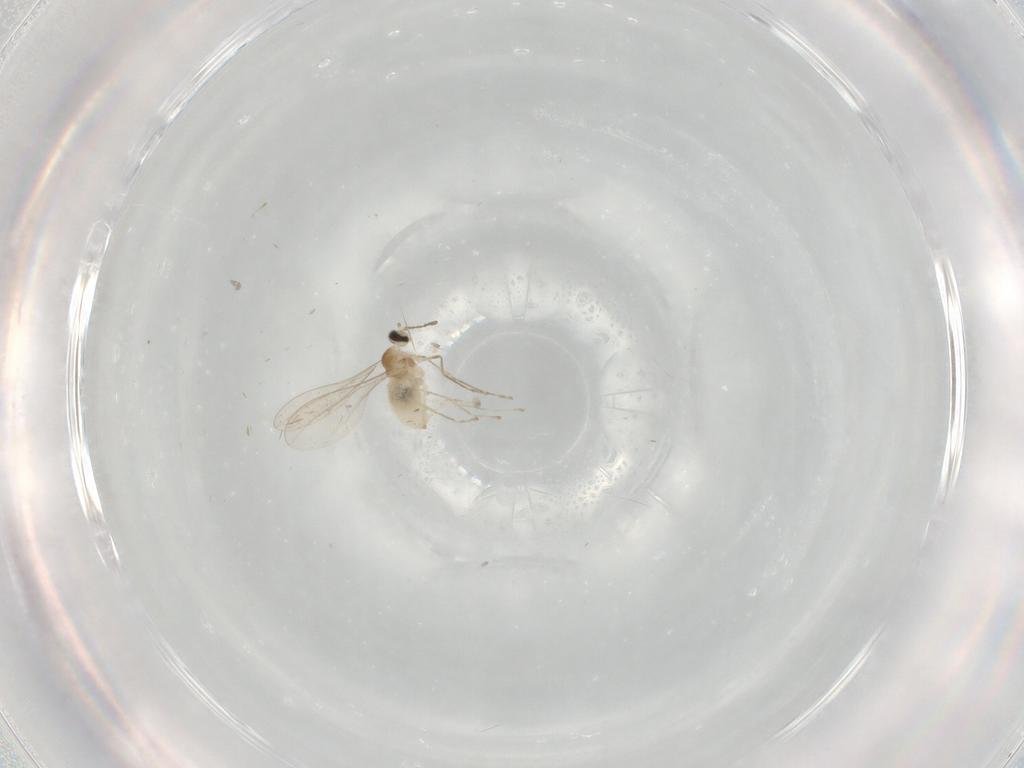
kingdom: Animalia
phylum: Arthropoda
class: Insecta
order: Diptera
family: Cecidomyiidae
